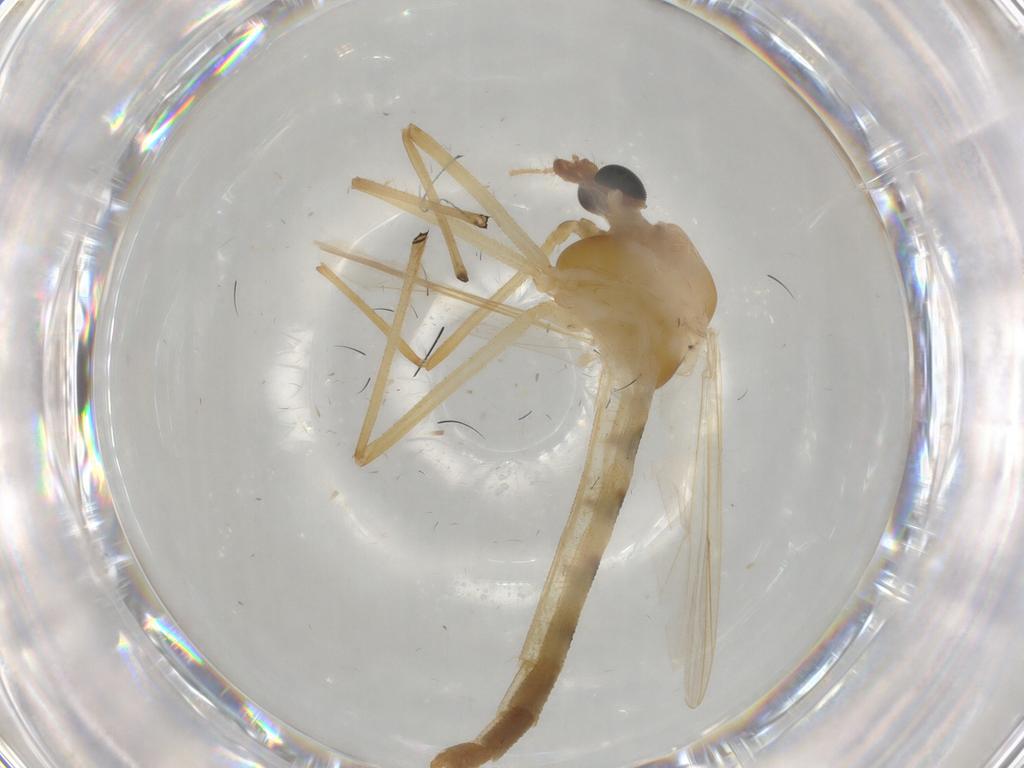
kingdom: Animalia
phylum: Arthropoda
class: Insecta
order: Diptera
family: Chironomidae
